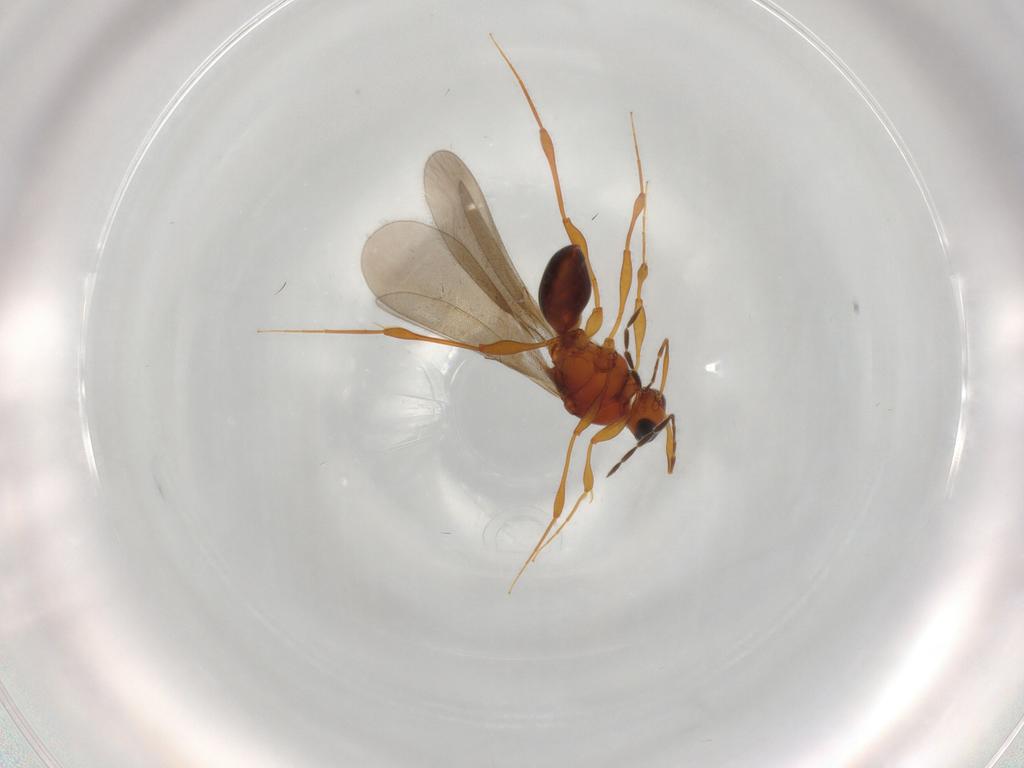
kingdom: Animalia
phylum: Arthropoda
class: Insecta
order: Hymenoptera
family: Platygastridae
